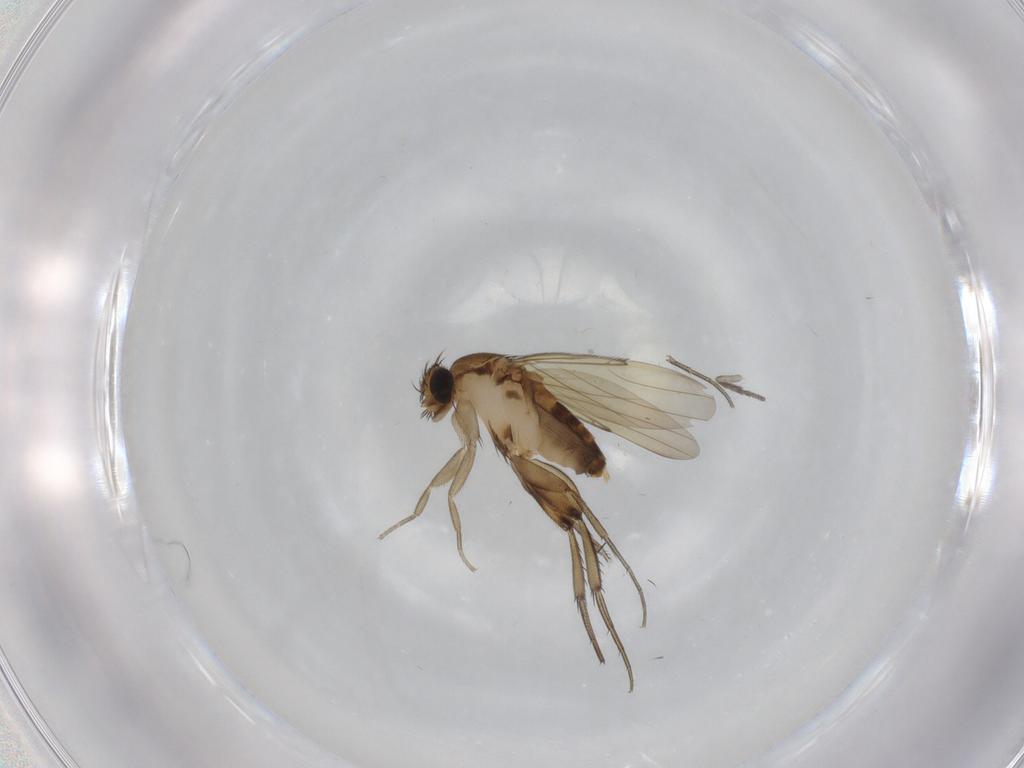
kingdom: Animalia
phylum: Arthropoda
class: Insecta
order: Diptera
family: Phoridae
